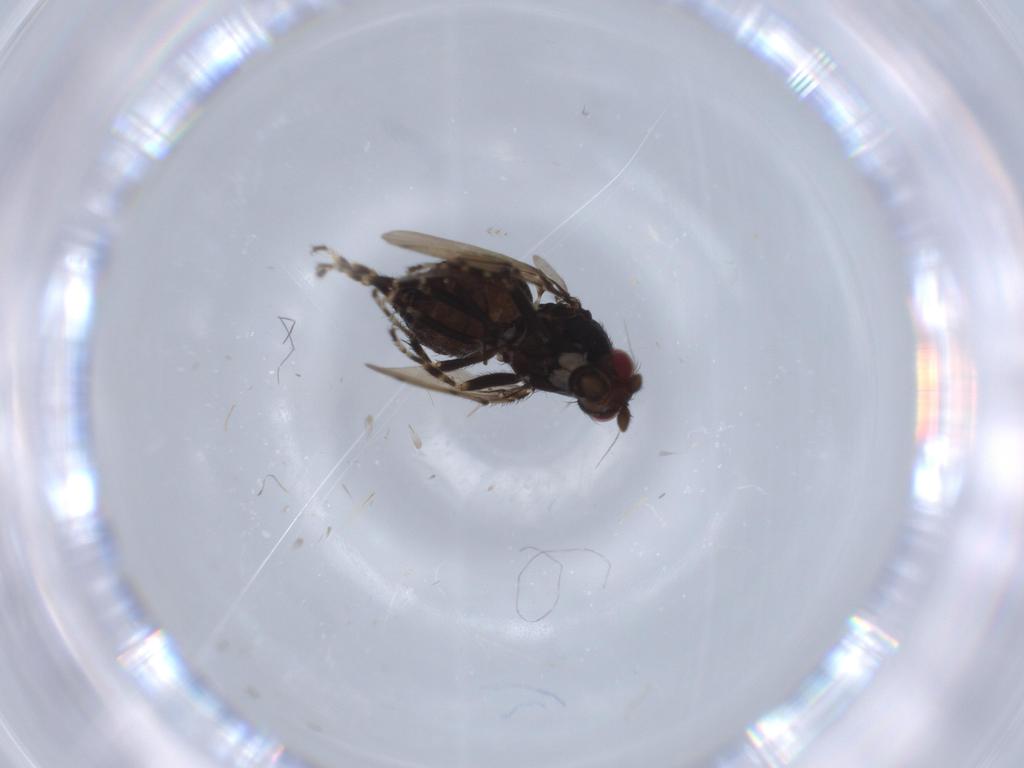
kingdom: Animalia
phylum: Arthropoda
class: Insecta
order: Diptera
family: Sphaeroceridae
